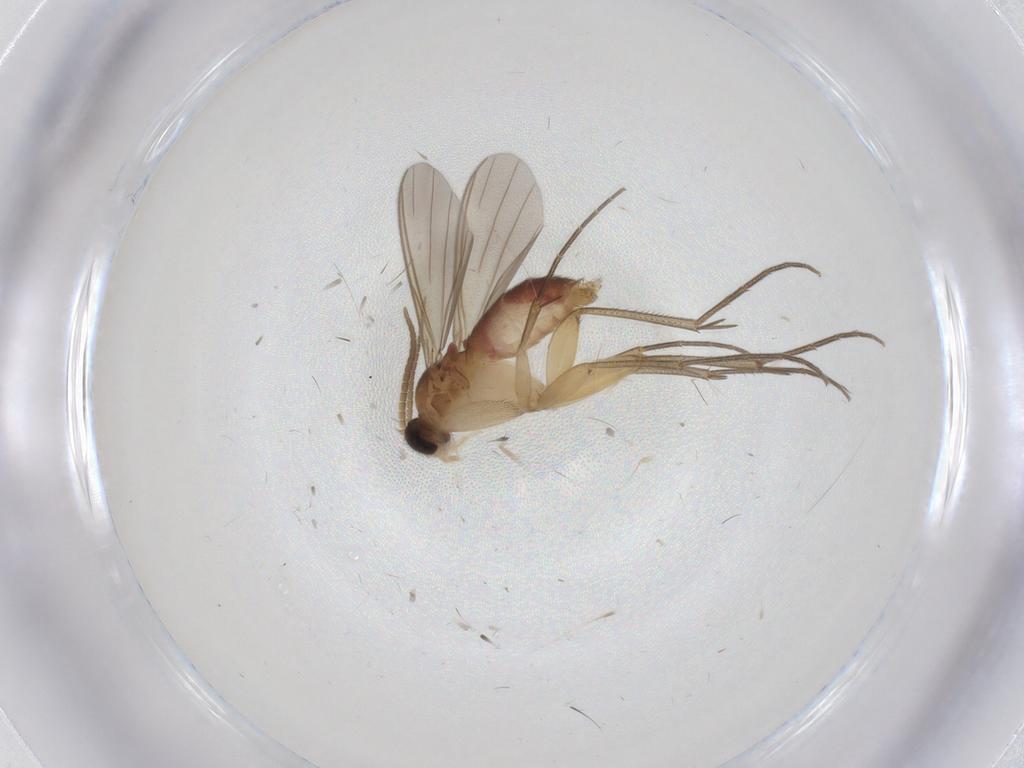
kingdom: Animalia
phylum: Arthropoda
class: Insecta
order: Diptera
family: Mycetophilidae
